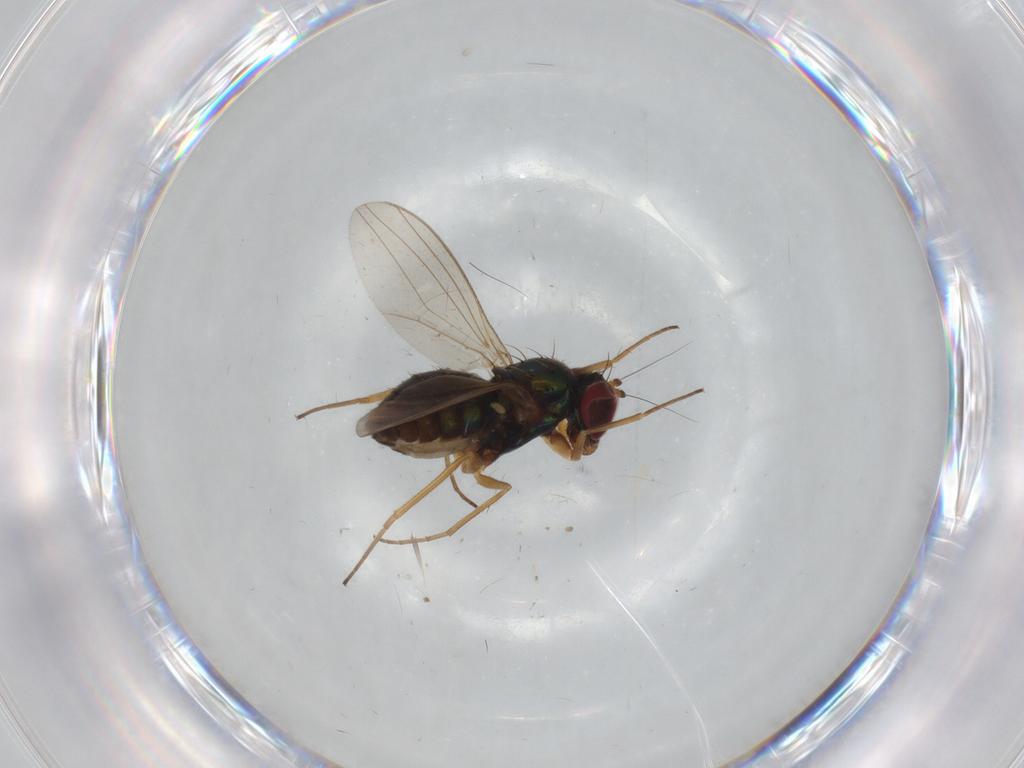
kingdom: Animalia
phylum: Arthropoda
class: Insecta
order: Diptera
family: Dolichopodidae
